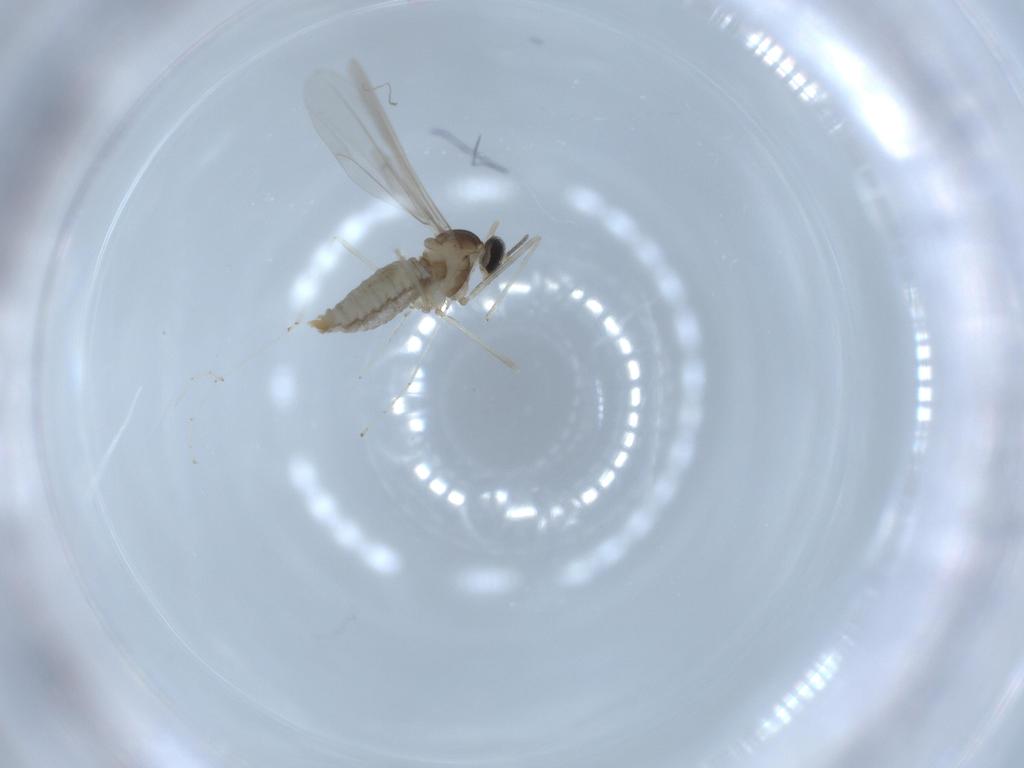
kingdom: Animalia
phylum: Arthropoda
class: Insecta
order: Diptera
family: Cecidomyiidae
